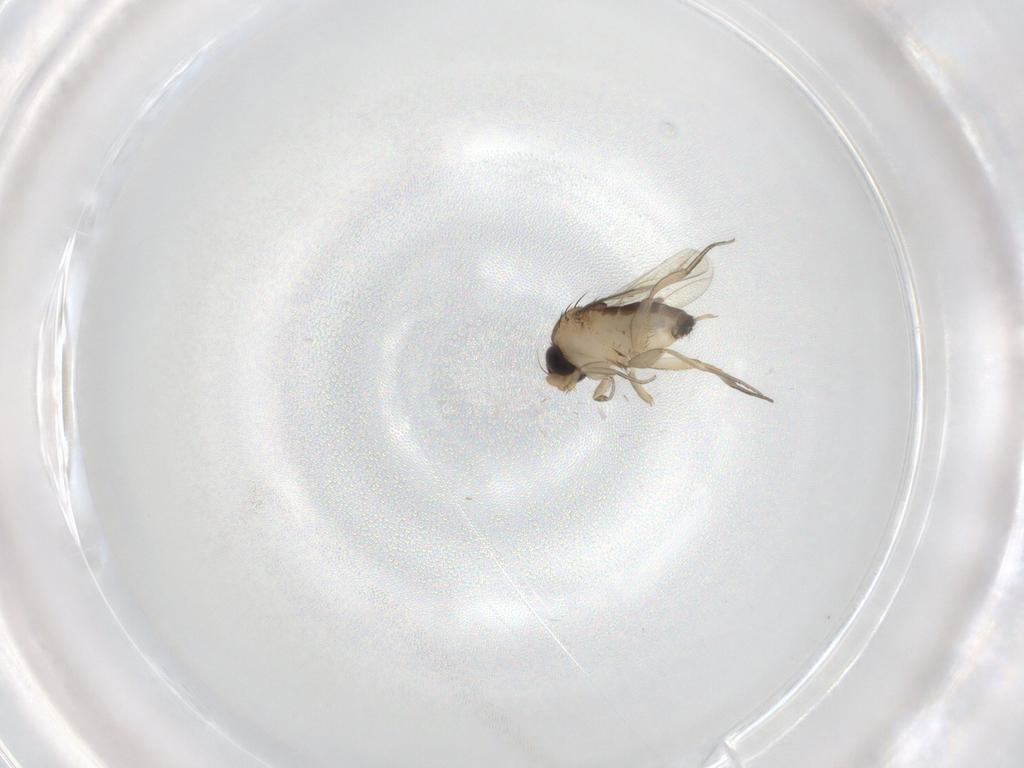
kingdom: Animalia
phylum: Arthropoda
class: Insecta
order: Diptera
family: Phoridae
